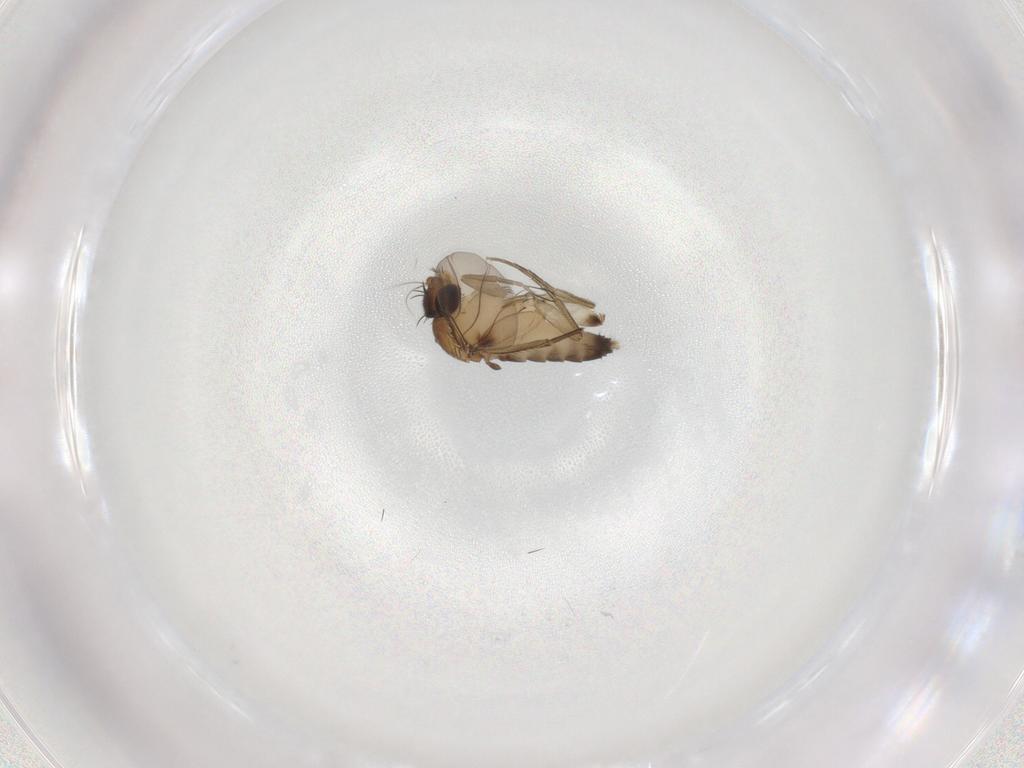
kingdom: Animalia
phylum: Arthropoda
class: Insecta
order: Diptera
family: Phoridae
